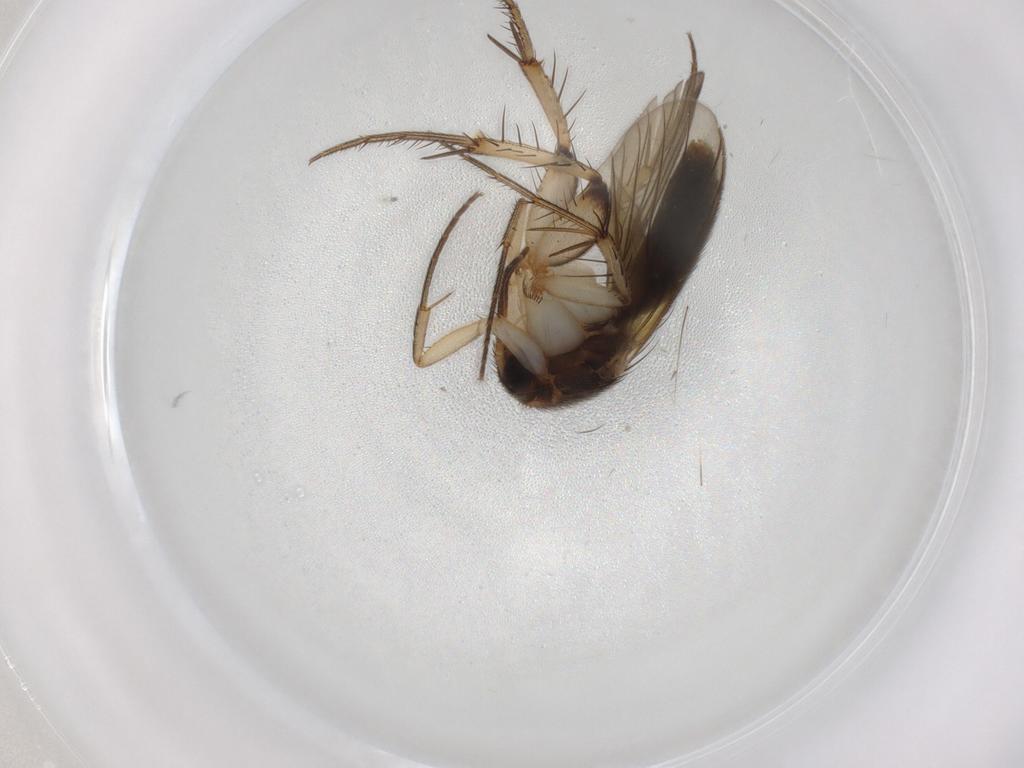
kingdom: Animalia
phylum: Arthropoda
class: Insecta
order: Diptera
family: Mycetophilidae
